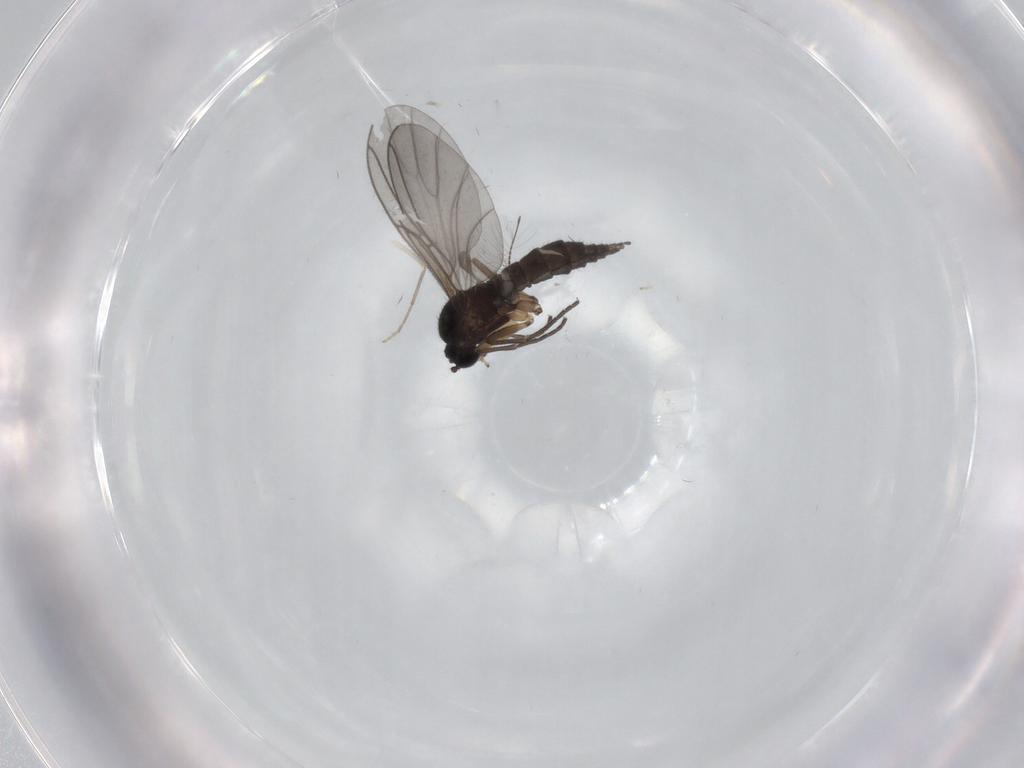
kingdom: Animalia
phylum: Arthropoda
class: Insecta
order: Diptera
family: Sciaridae
